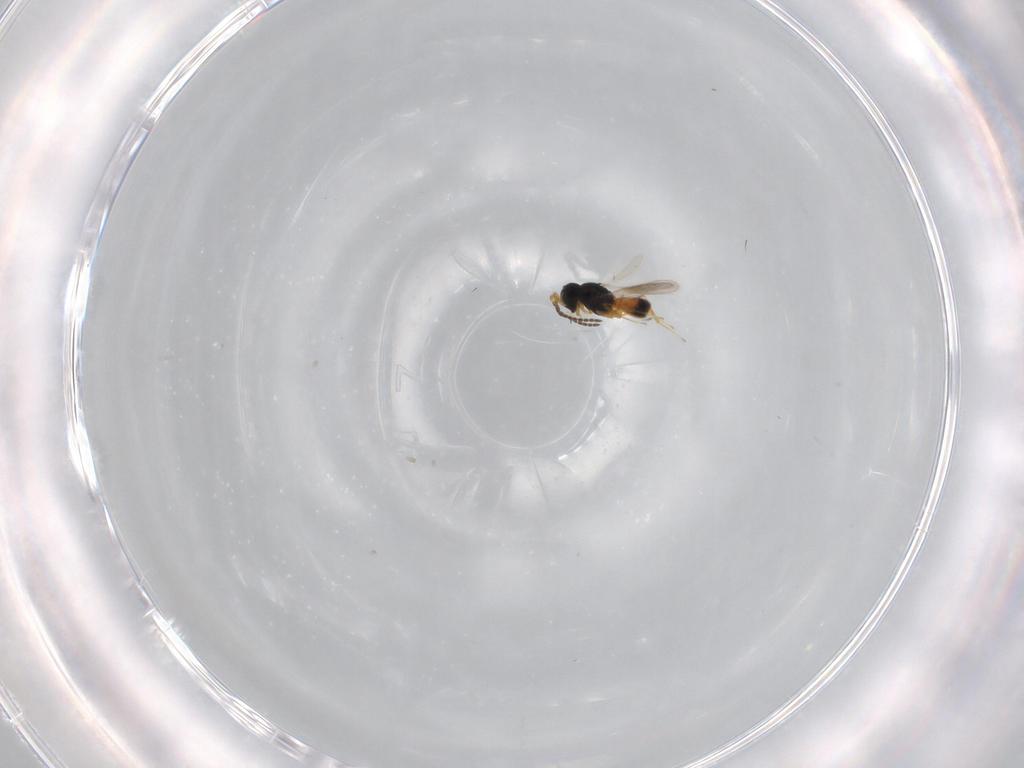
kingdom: Animalia
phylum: Arthropoda
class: Insecta
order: Hymenoptera
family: Scelionidae
